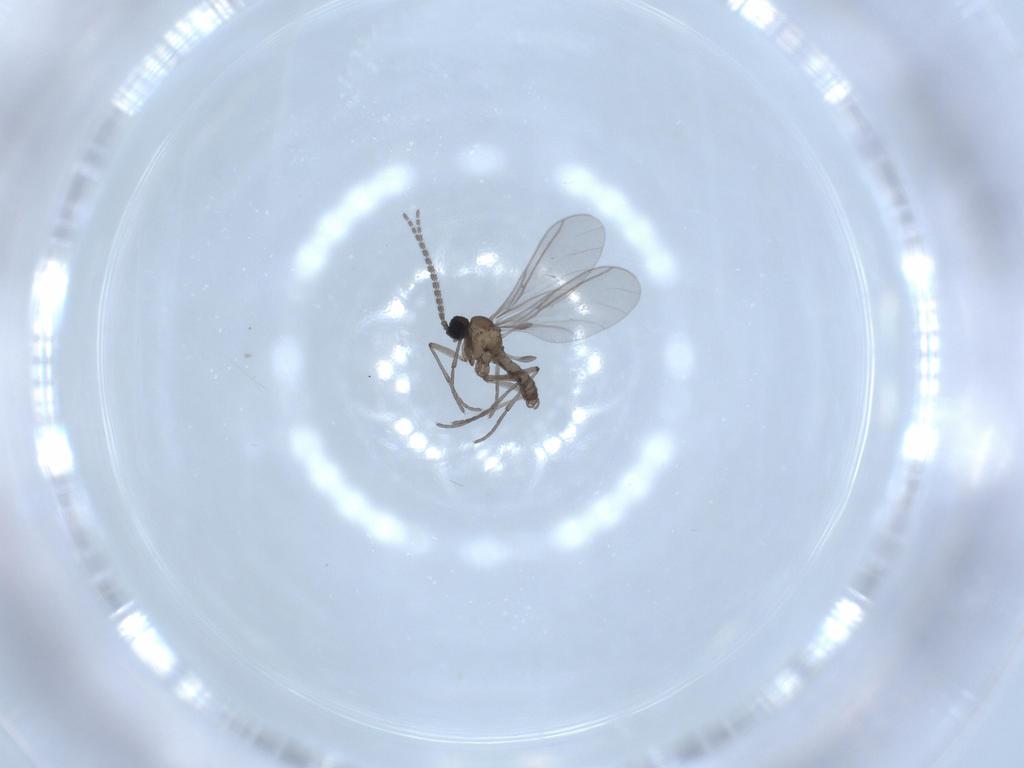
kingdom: Animalia
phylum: Arthropoda
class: Insecta
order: Diptera
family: Sciaridae
